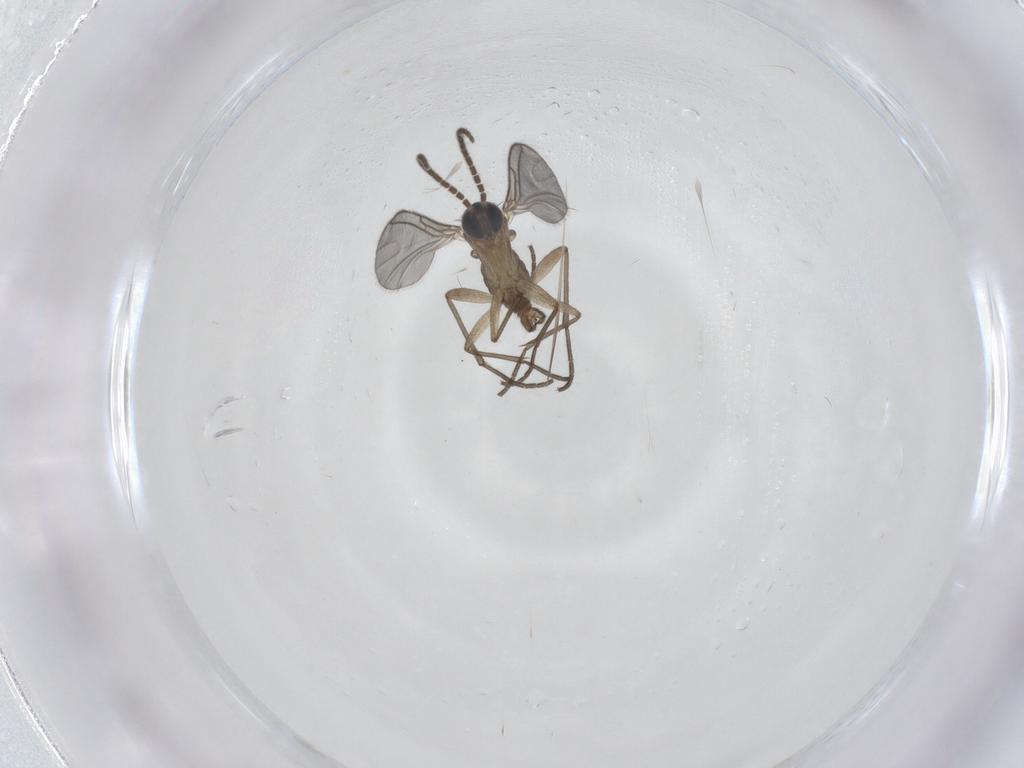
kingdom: Animalia
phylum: Arthropoda
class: Insecta
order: Diptera
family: Sciaridae
